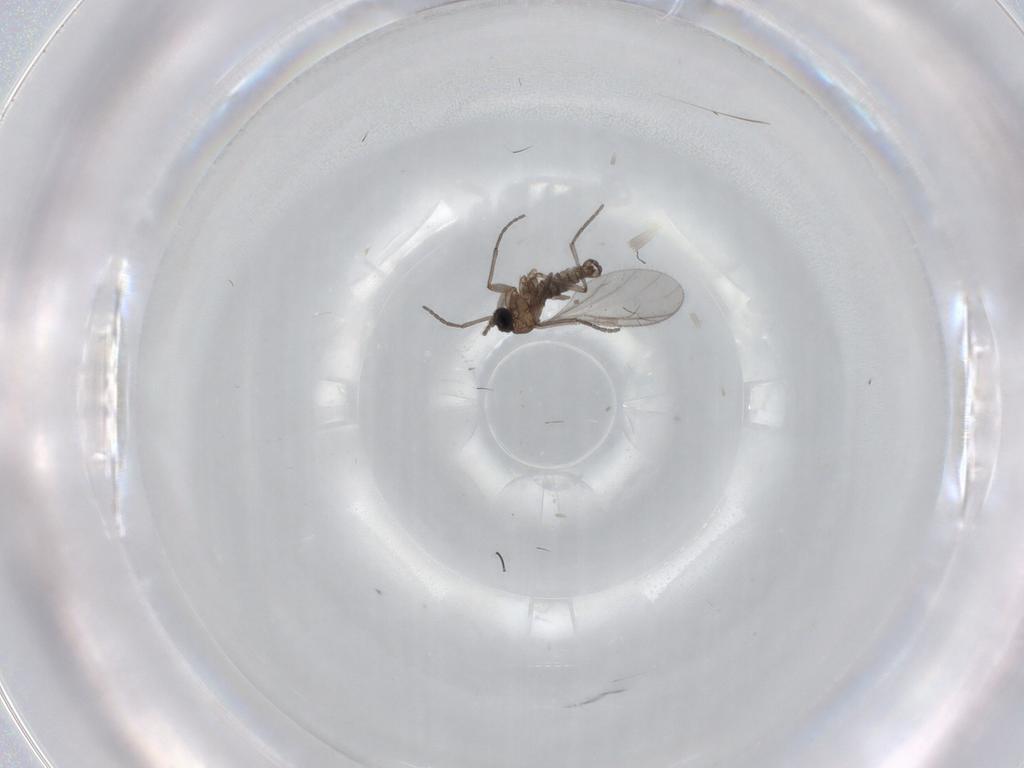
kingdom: Animalia
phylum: Arthropoda
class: Insecta
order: Diptera
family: Sciaridae
